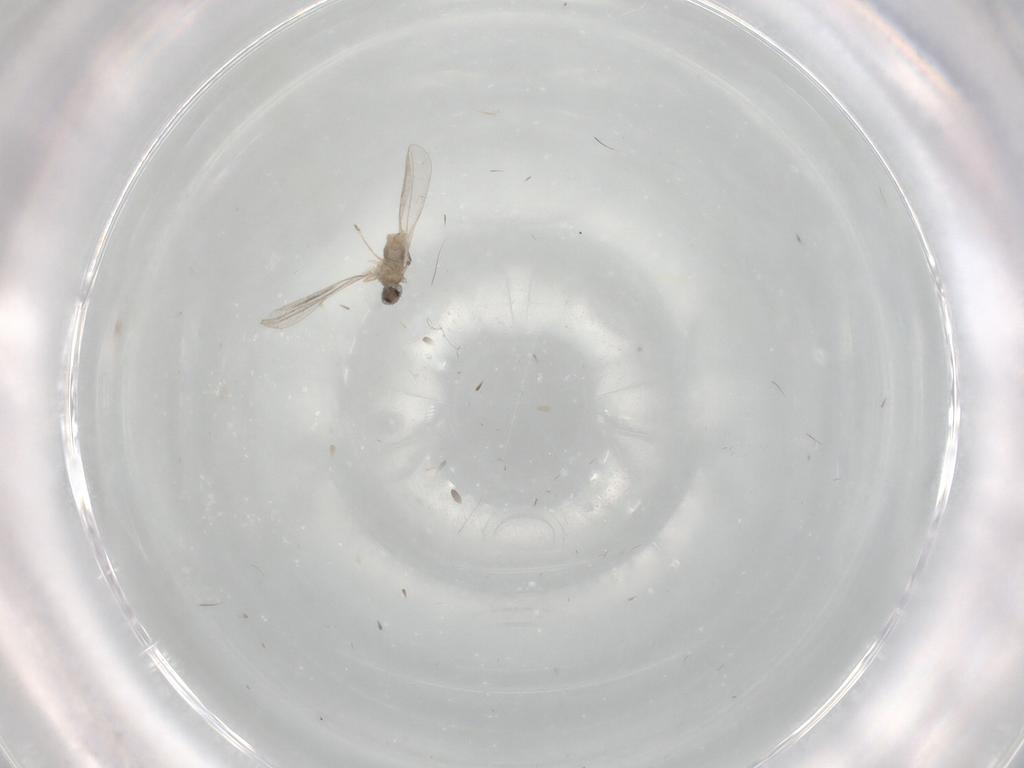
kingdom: Animalia
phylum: Arthropoda
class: Insecta
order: Diptera
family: Cecidomyiidae
